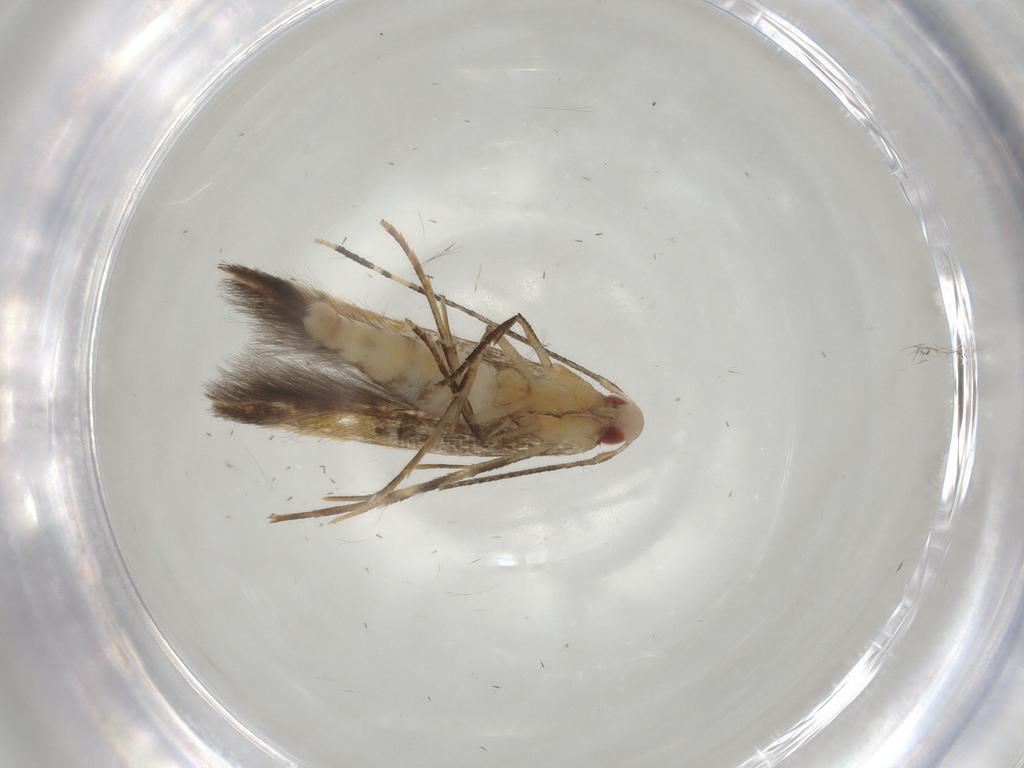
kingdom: Animalia
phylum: Arthropoda
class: Insecta
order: Lepidoptera
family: Cosmopterigidae
